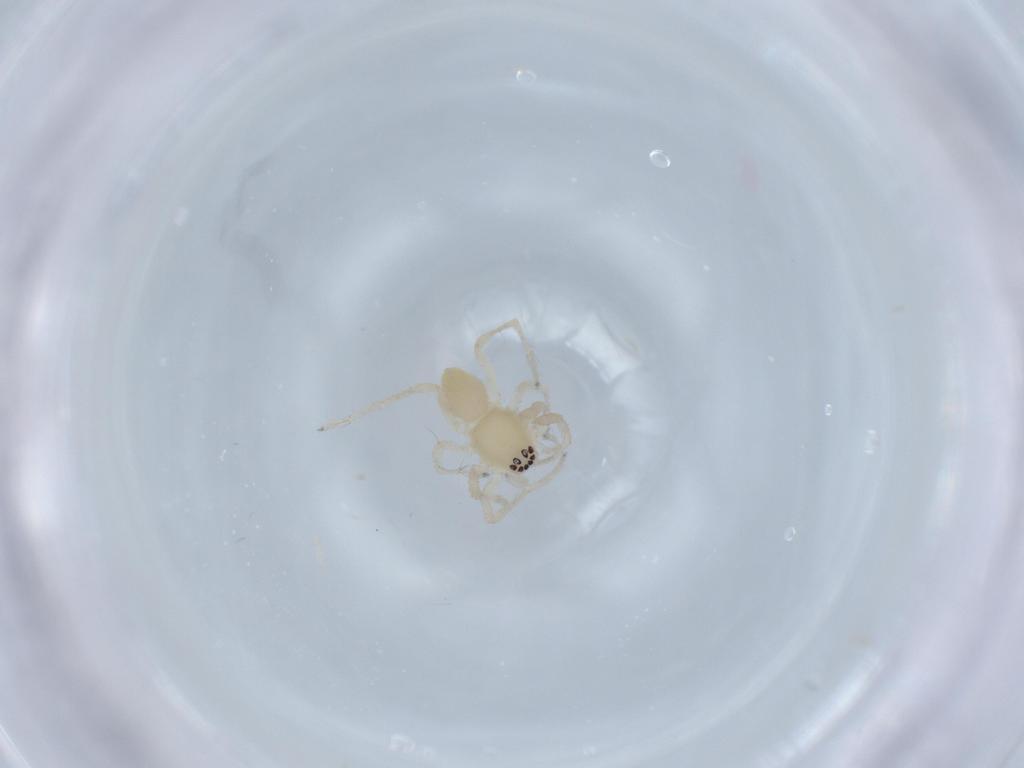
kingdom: Animalia
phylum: Arthropoda
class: Arachnida
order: Araneae
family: Anyphaenidae
